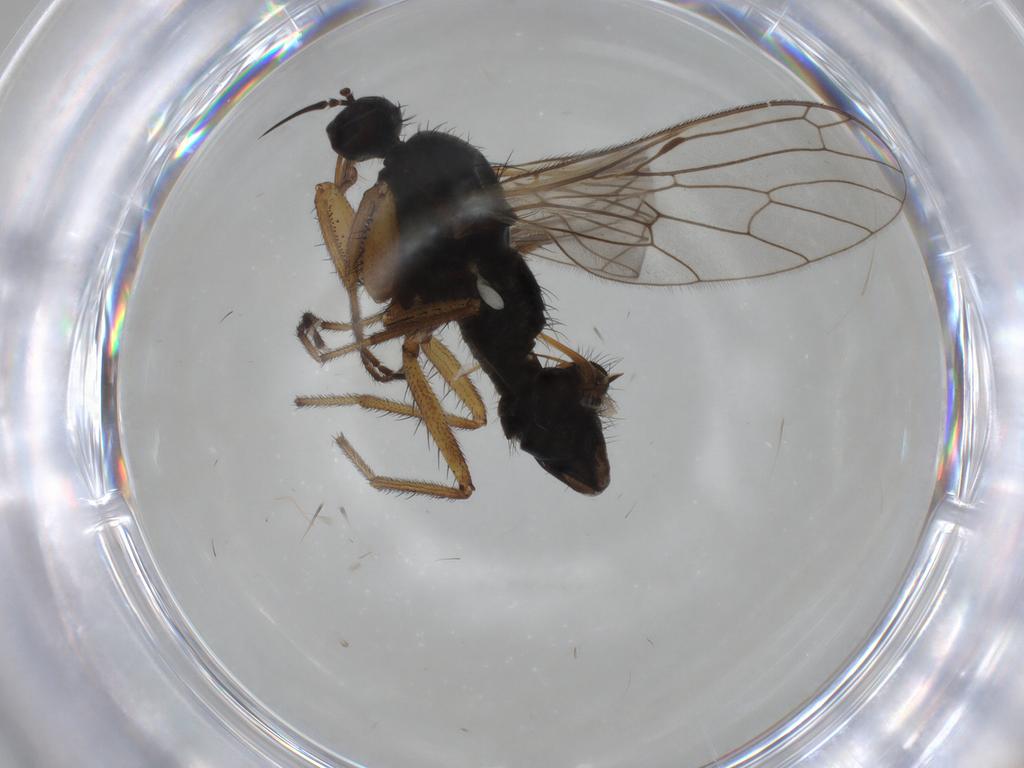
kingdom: Animalia
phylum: Arthropoda
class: Insecta
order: Diptera
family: Empididae
